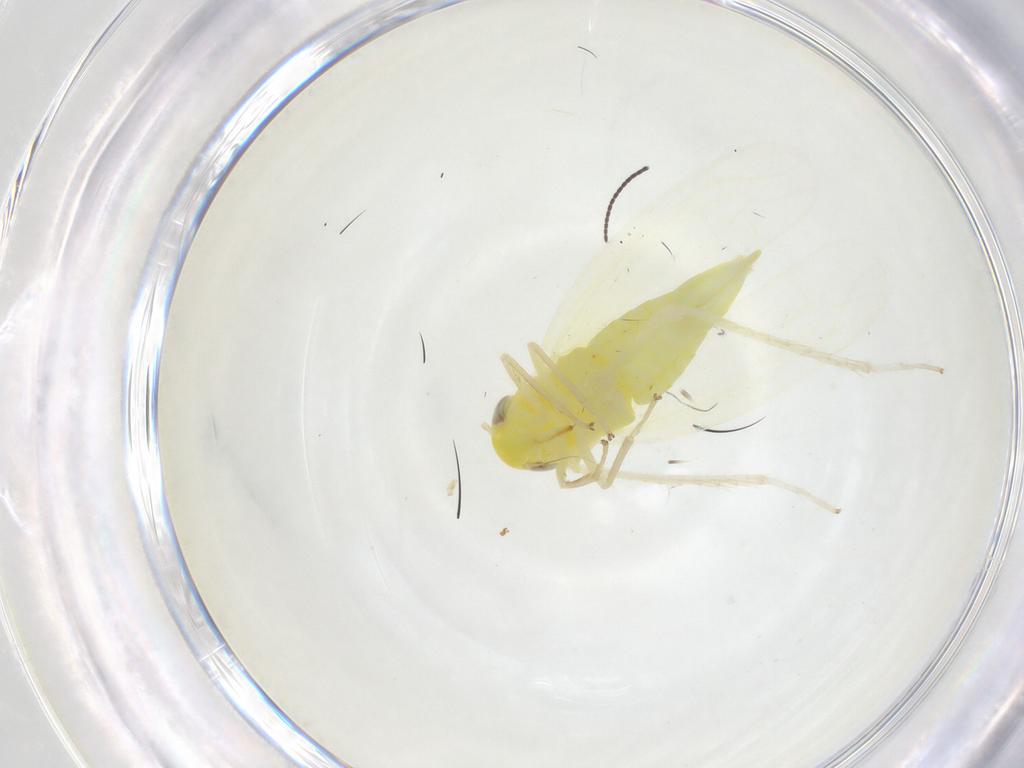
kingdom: Animalia
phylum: Arthropoda
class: Insecta
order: Hemiptera
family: Cicadellidae
